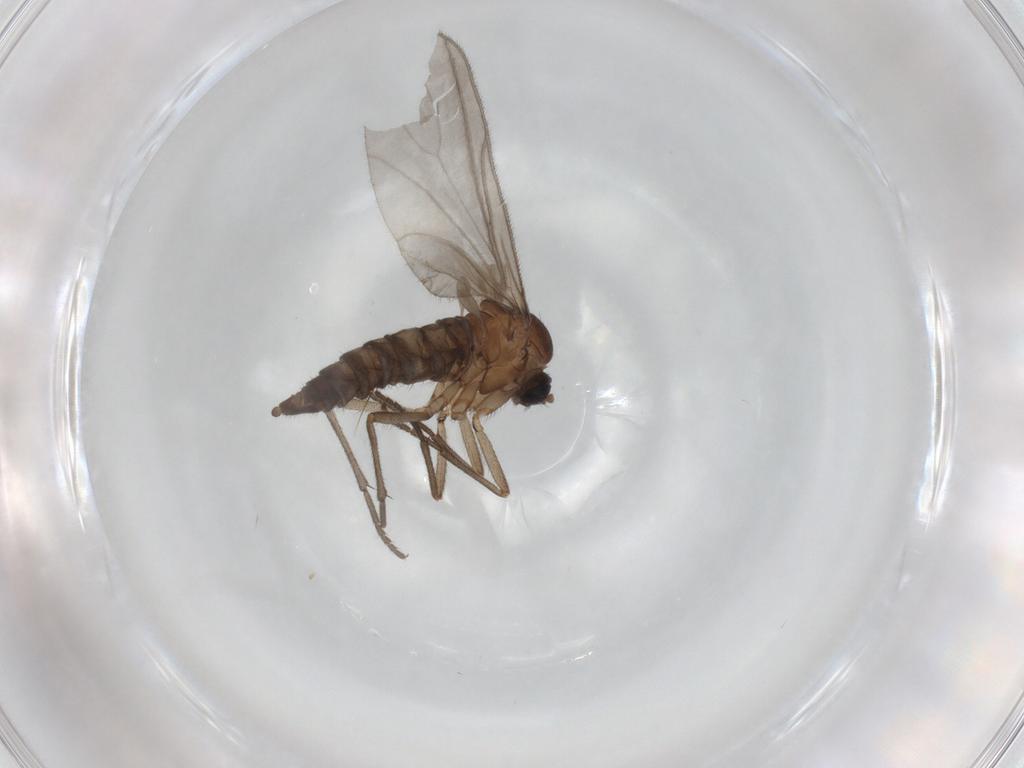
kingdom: Animalia
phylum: Arthropoda
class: Insecta
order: Diptera
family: Sciaridae
